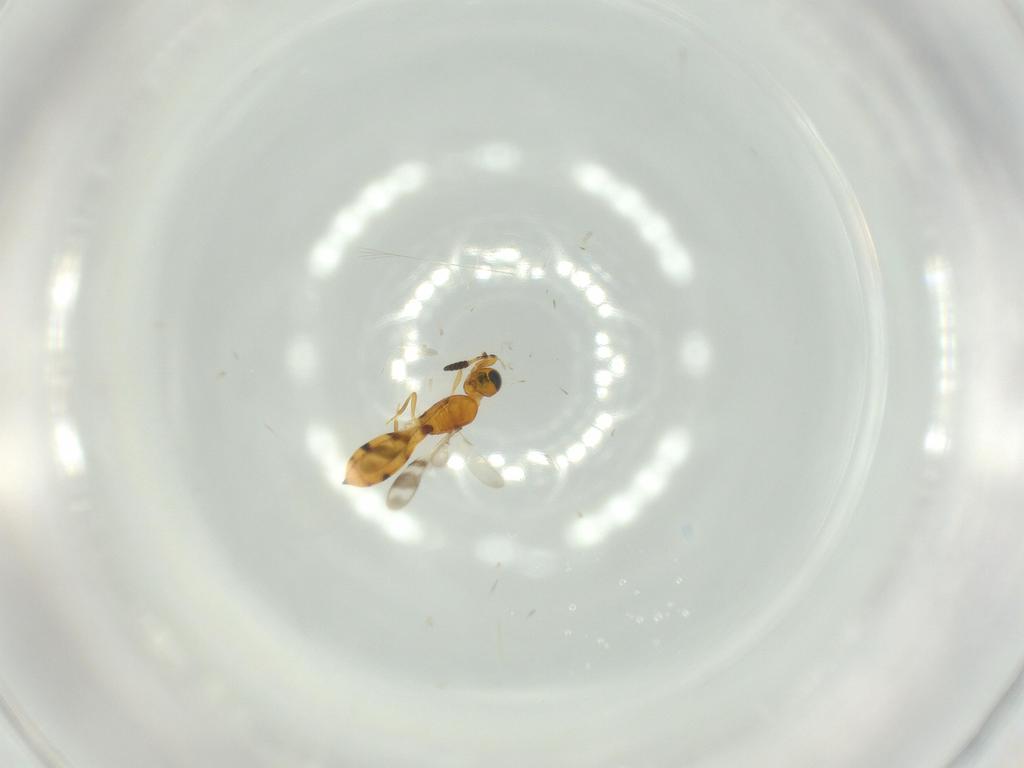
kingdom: Animalia
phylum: Arthropoda
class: Insecta
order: Hymenoptera
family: Scelionidae
